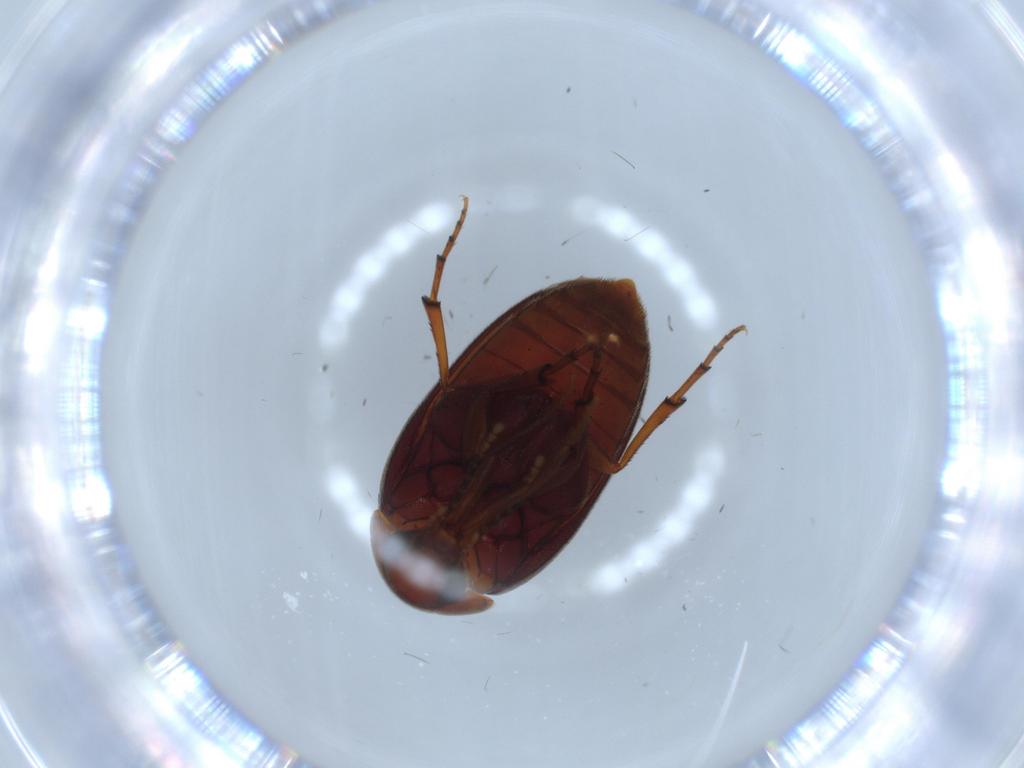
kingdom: Animalia
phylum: Arthropoda
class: Insecta
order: Coleoptera
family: Eucinetidae
